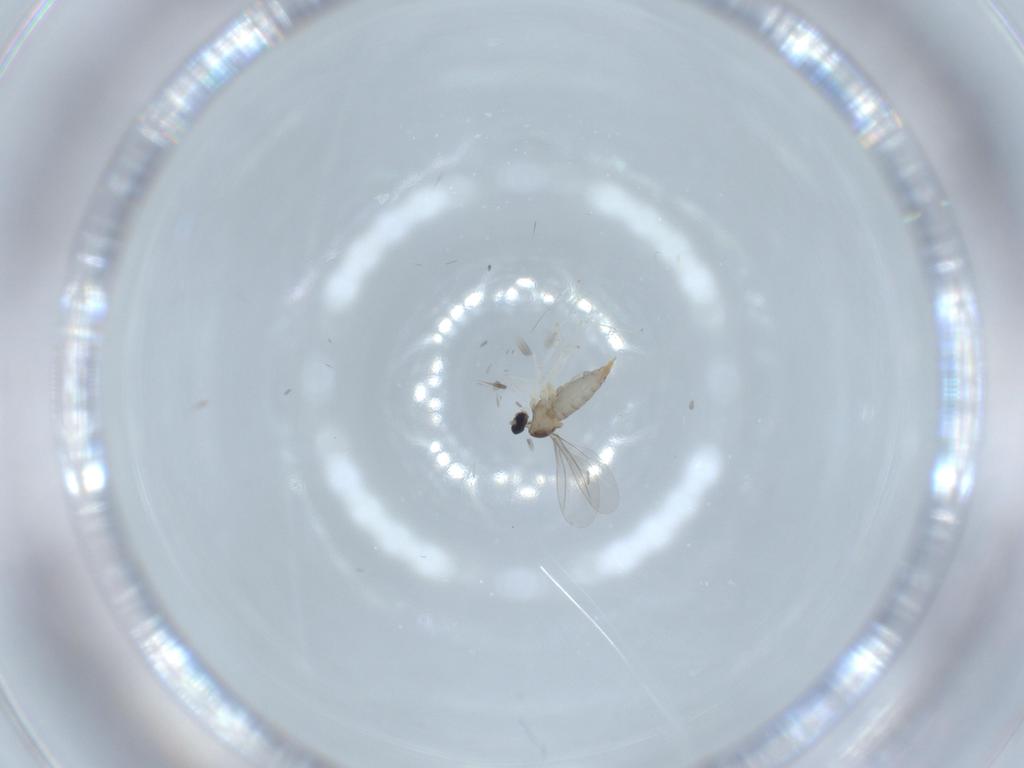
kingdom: Animalia
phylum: Arthropoda
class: Insecta
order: Diptera
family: Cecidomyiidae
